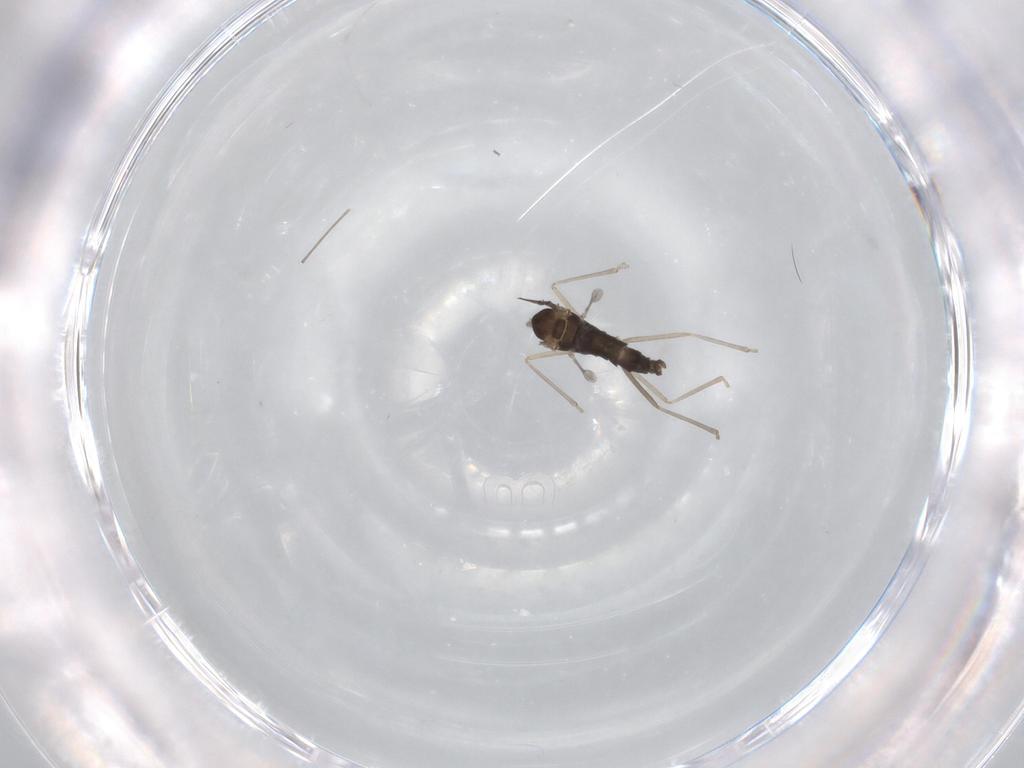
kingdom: Animalia
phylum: Arthropoda
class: Insecta
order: Diptera
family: Cecidomyiidae
